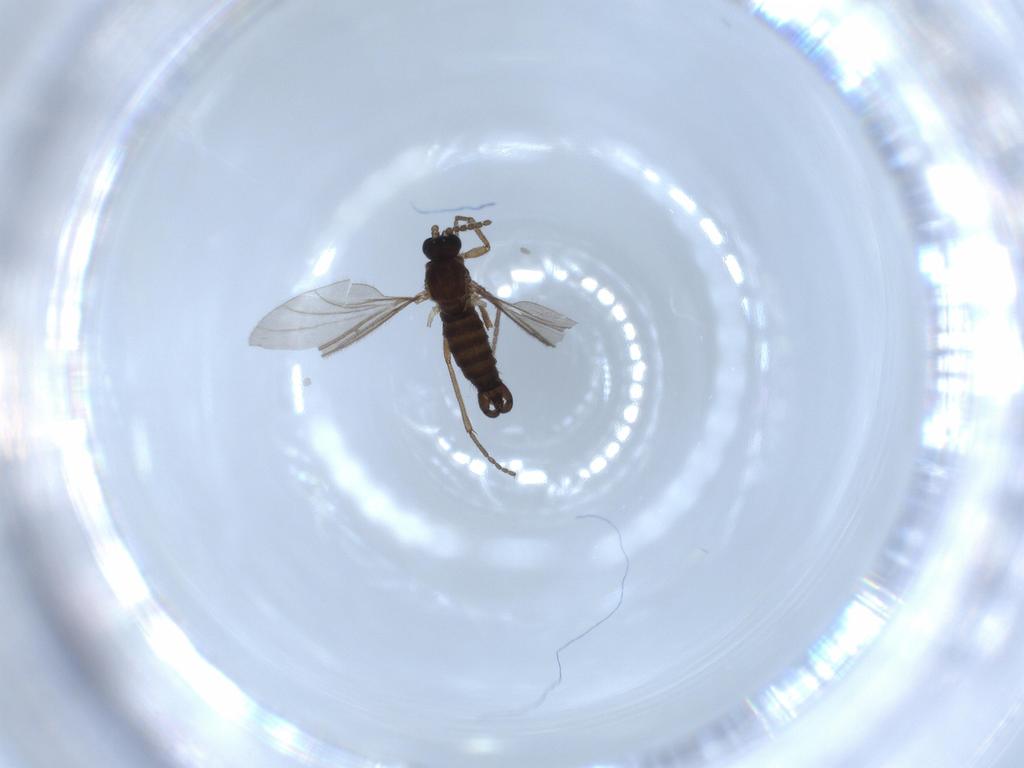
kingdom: Animalia
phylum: Arthropoda
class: Insecta
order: Diptera
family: Sciaridae
